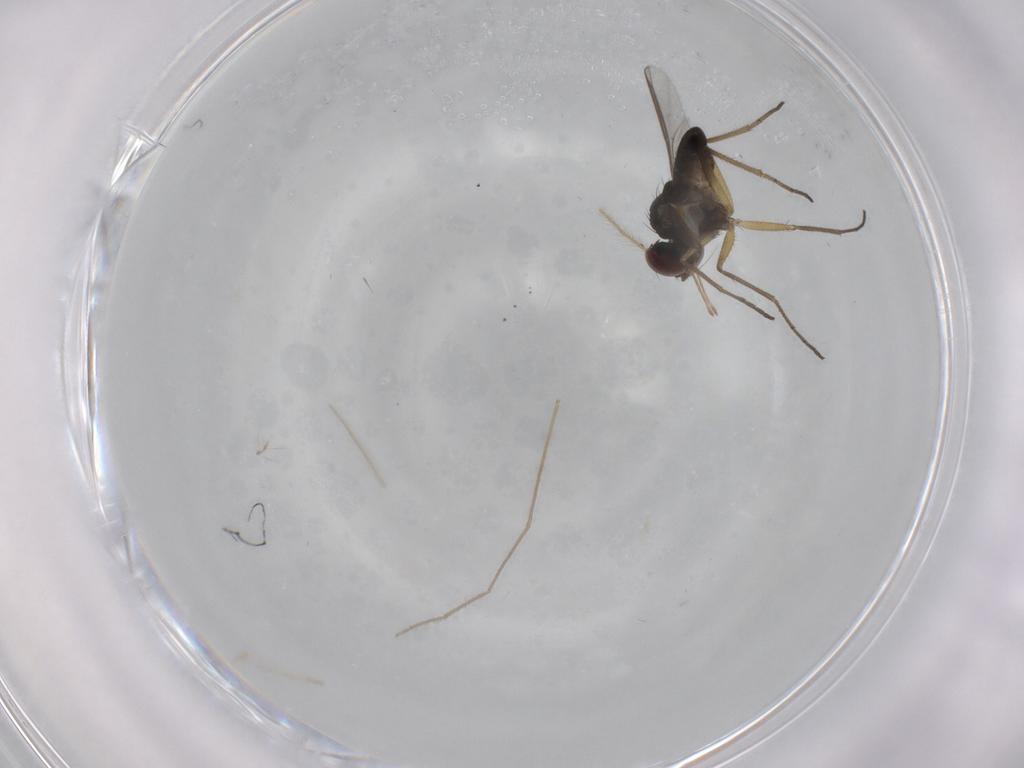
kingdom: Animalia
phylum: Arthropoda
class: Insecta
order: Diptera
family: Dolichopodidae
